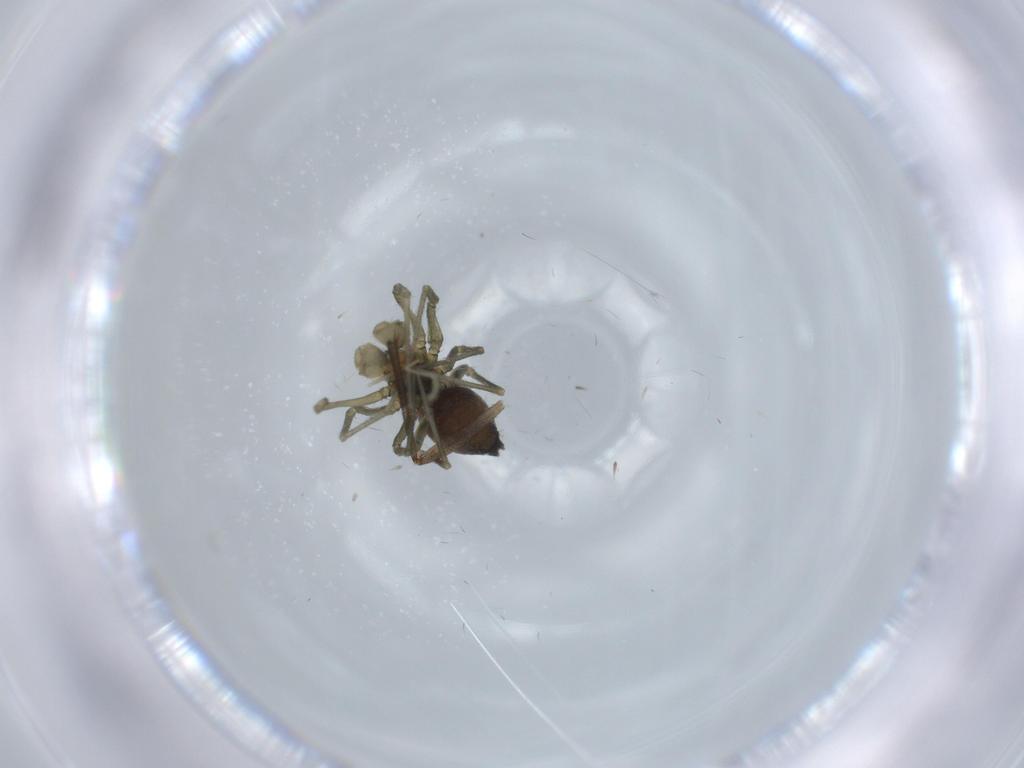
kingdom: Animalia
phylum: Arthropoda
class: Arachnida
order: Araneae
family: Linyphiidae
